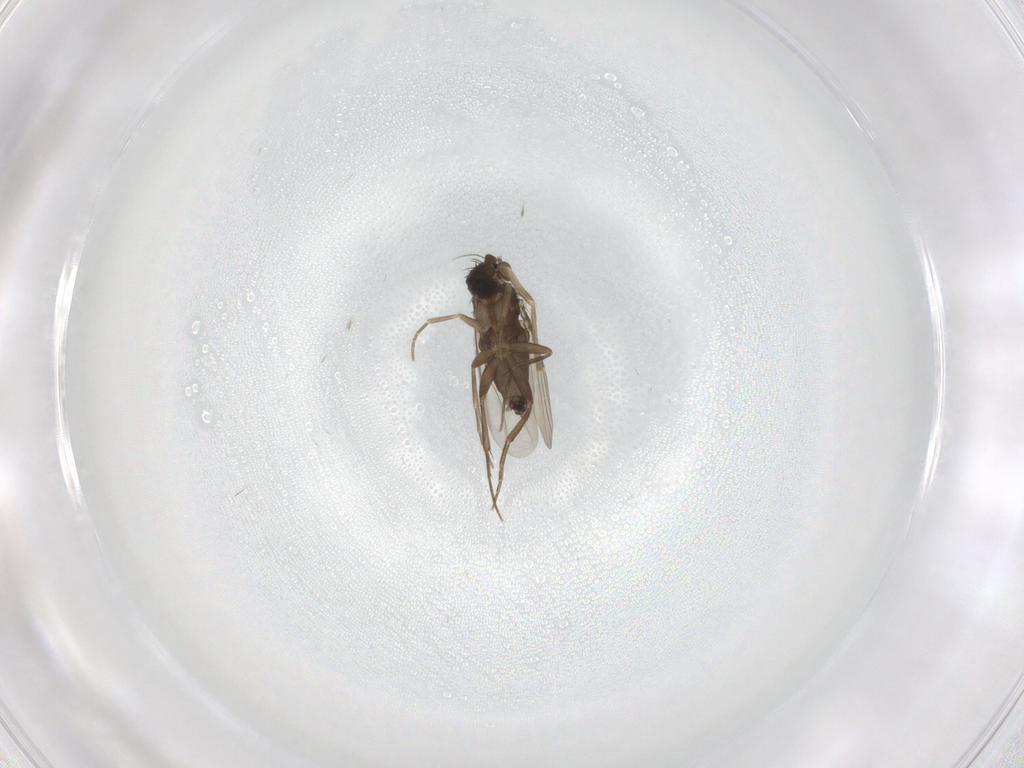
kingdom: Animalia
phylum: Arthropoda
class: Insecta
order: Diptera
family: Phoridae
